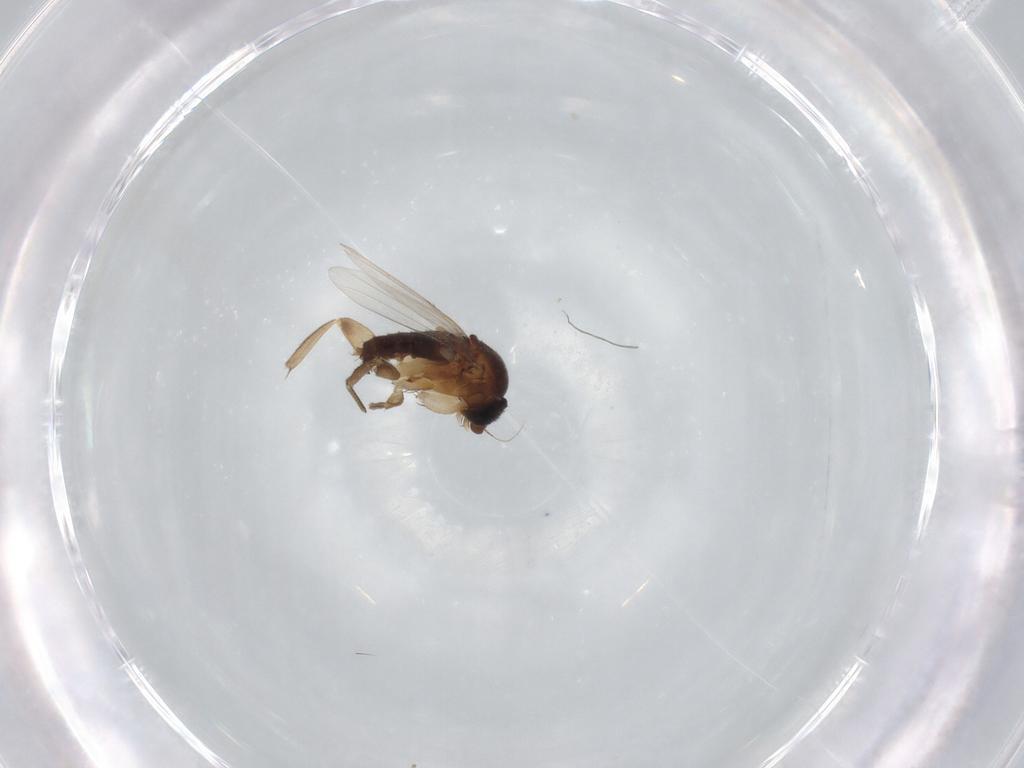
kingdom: Animalia
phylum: Arthropoda
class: Insecta
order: Diptera
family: Phoridae
